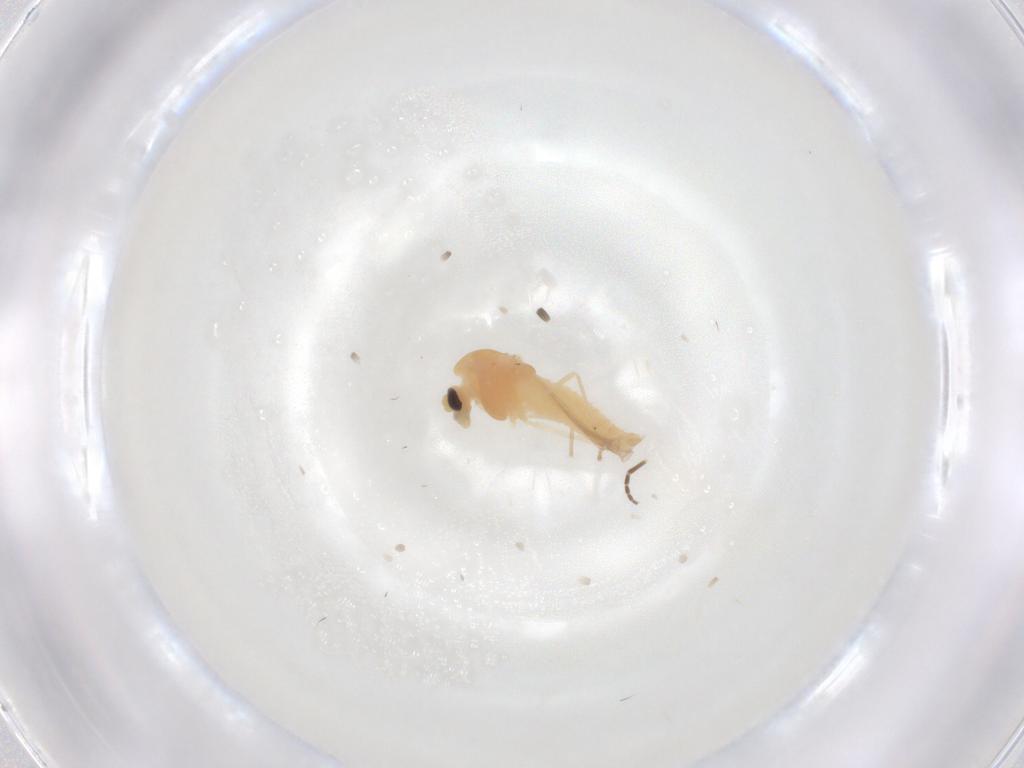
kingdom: Animalia
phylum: Arthropoda
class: Insecta
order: Diptera
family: Chironomidae
